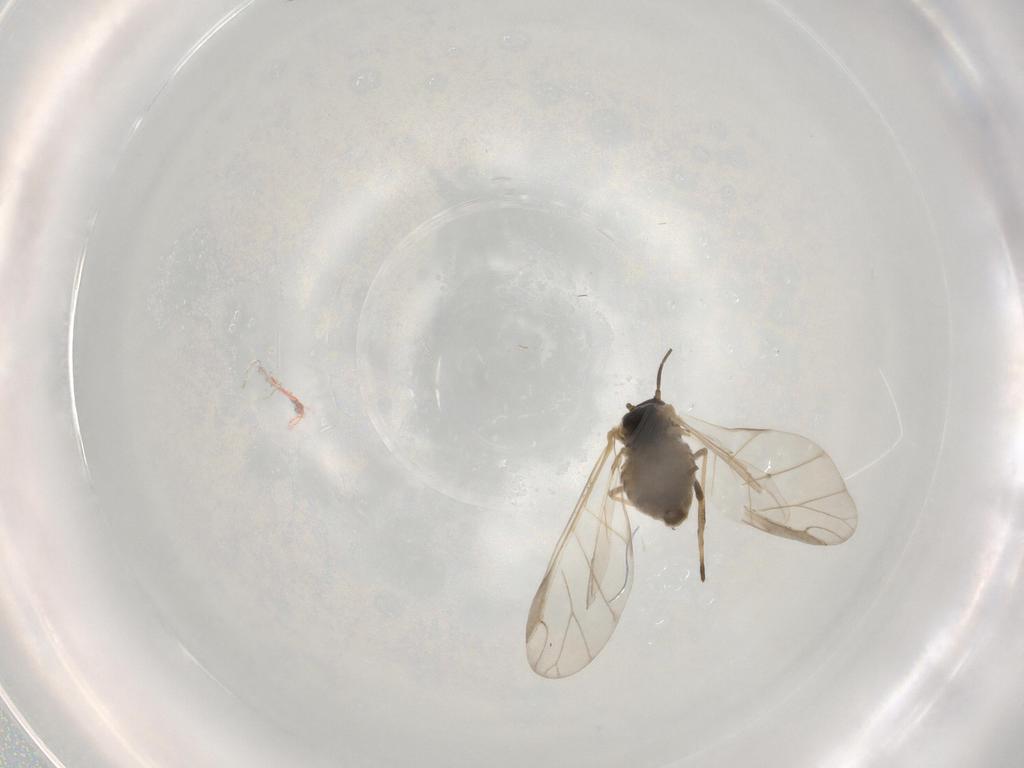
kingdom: Animalia
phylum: Arthropoda
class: Insecta
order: Hemiptera
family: Aphididae
